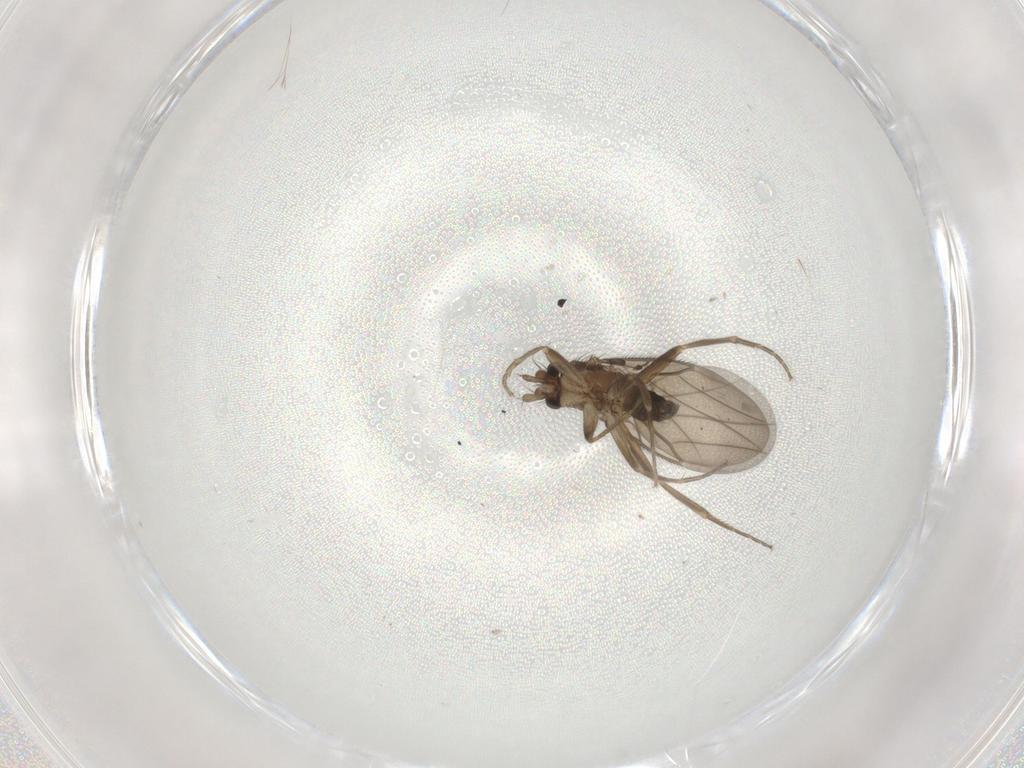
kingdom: Animalia
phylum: Arthropoda
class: Insecta
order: Diptera
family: Phoridae
